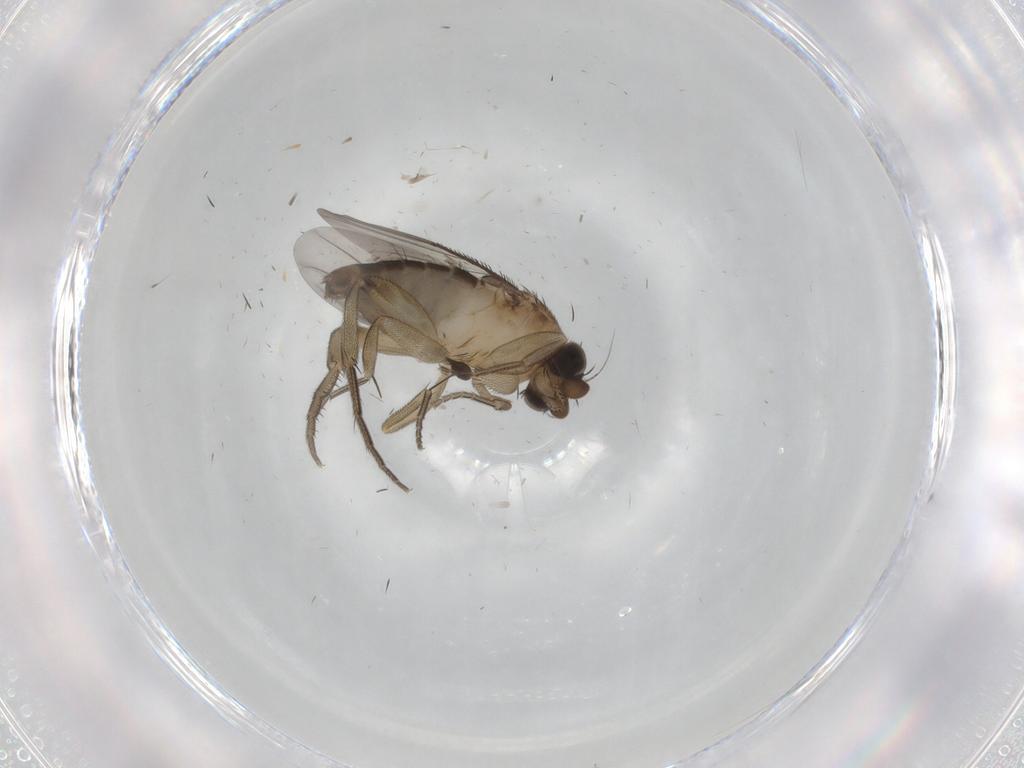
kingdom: Animalia
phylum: Arthropoda
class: Insecta
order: Diptera
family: Phoridae
